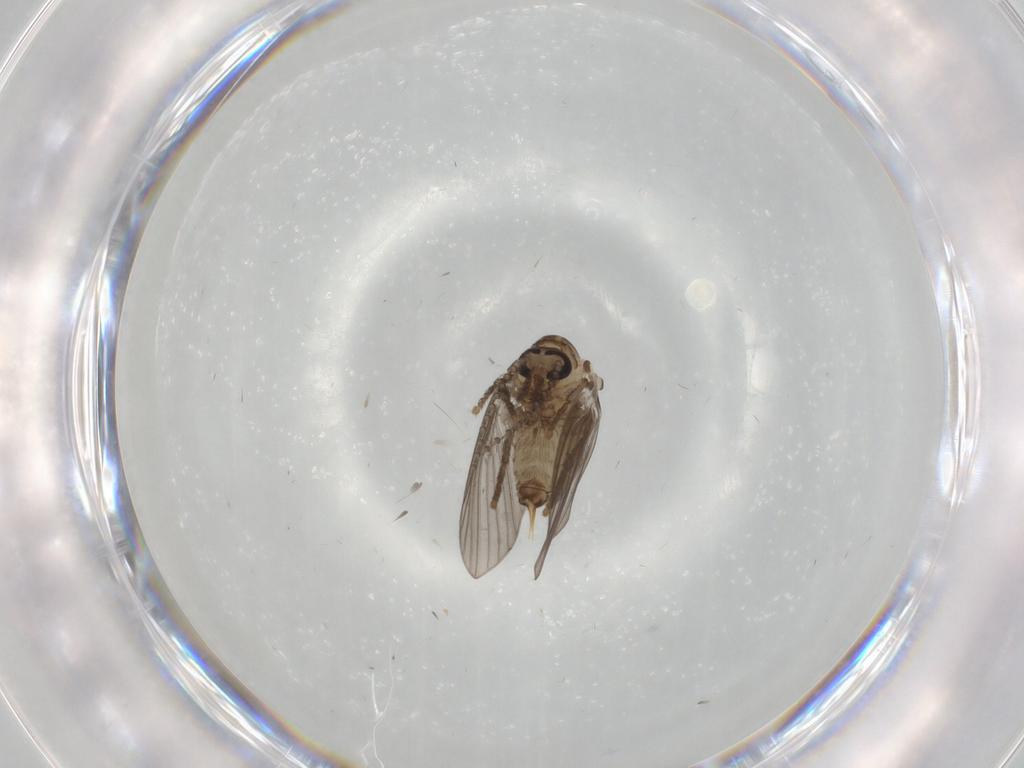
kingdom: Animalia
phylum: Arthropoda
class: Insecta
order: Diptera
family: Psychodidae
